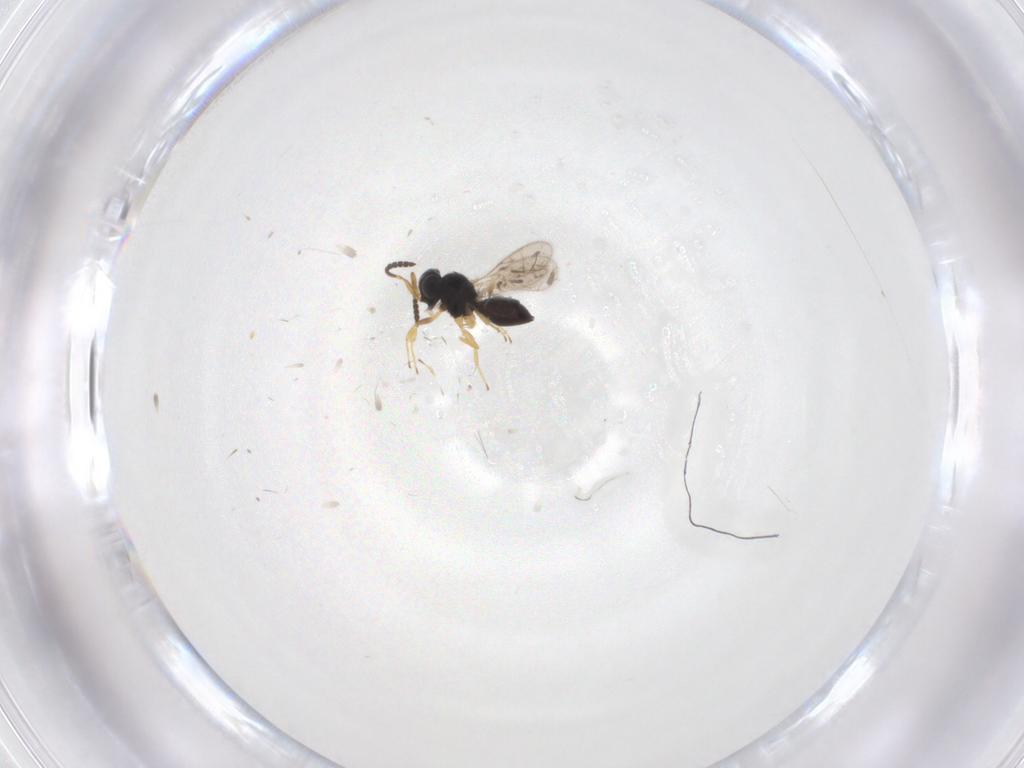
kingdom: Animalia
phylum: Arthropoda
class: Insecta
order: Hymenoptera
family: Scelionidae
